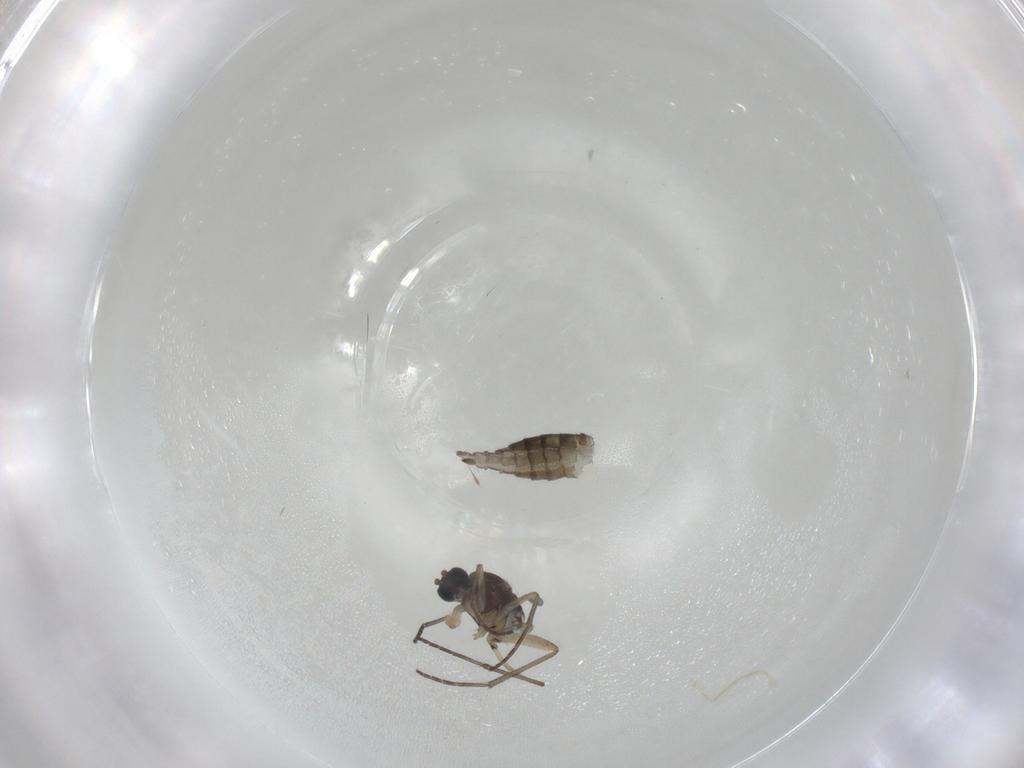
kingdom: Animalia
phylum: Arthropoda
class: Insecta
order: Diptera
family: Sciaridae
